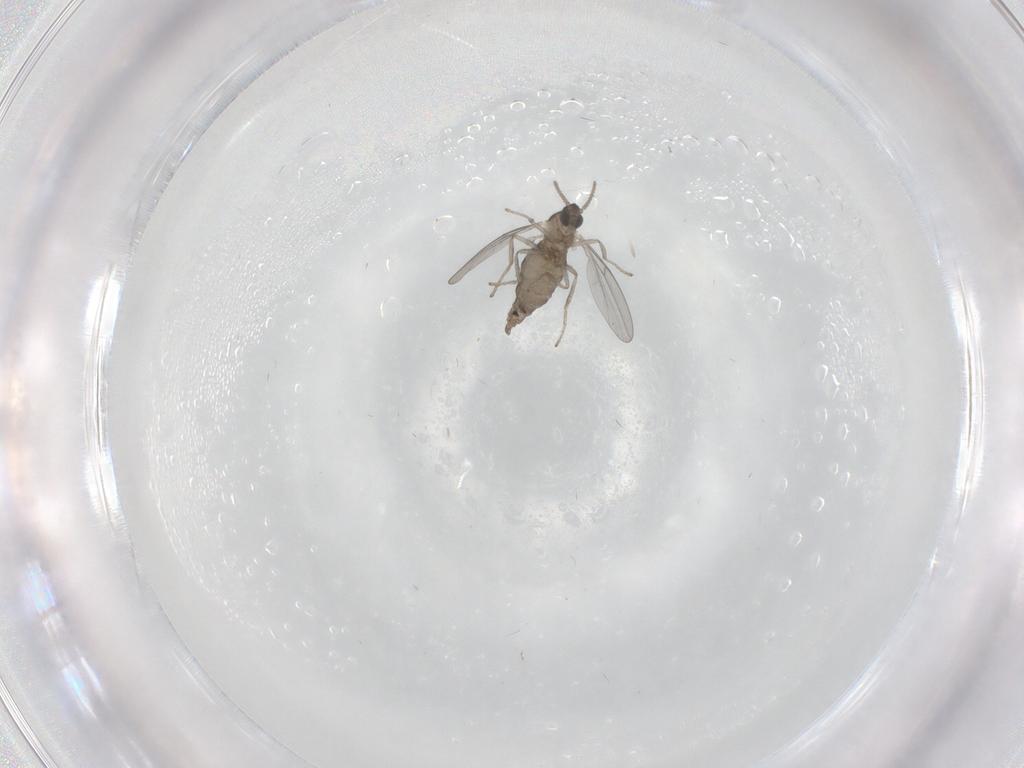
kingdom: Animalia
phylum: Arthropoda
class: Insecta
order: Diptera
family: Cecidomyiidae
